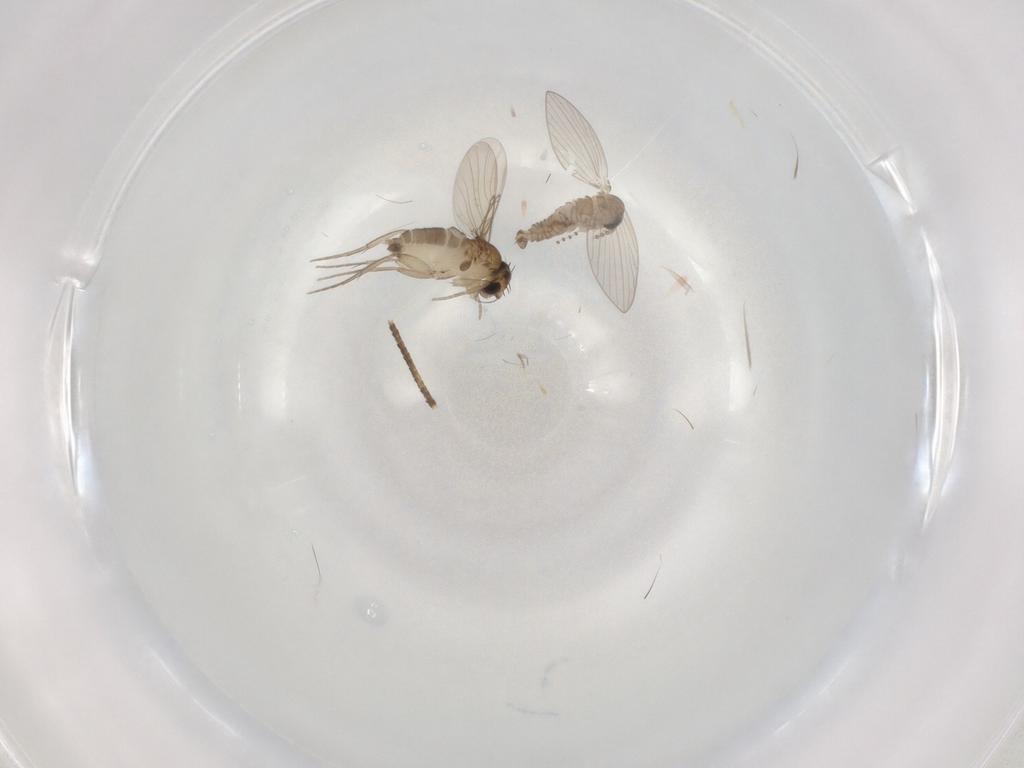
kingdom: Animalia
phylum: Arthropoda
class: Insecta
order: Diptera
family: Phoridae
